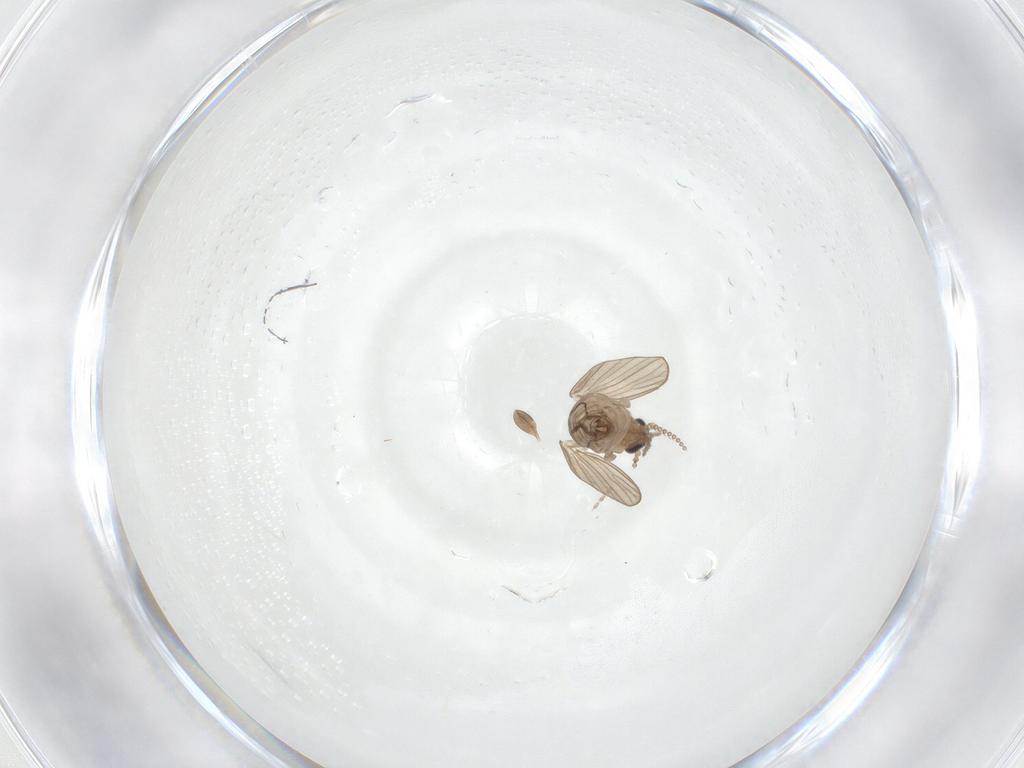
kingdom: Animalia
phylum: Arthropoda
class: Insecta
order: Diptera
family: Psychodidae
